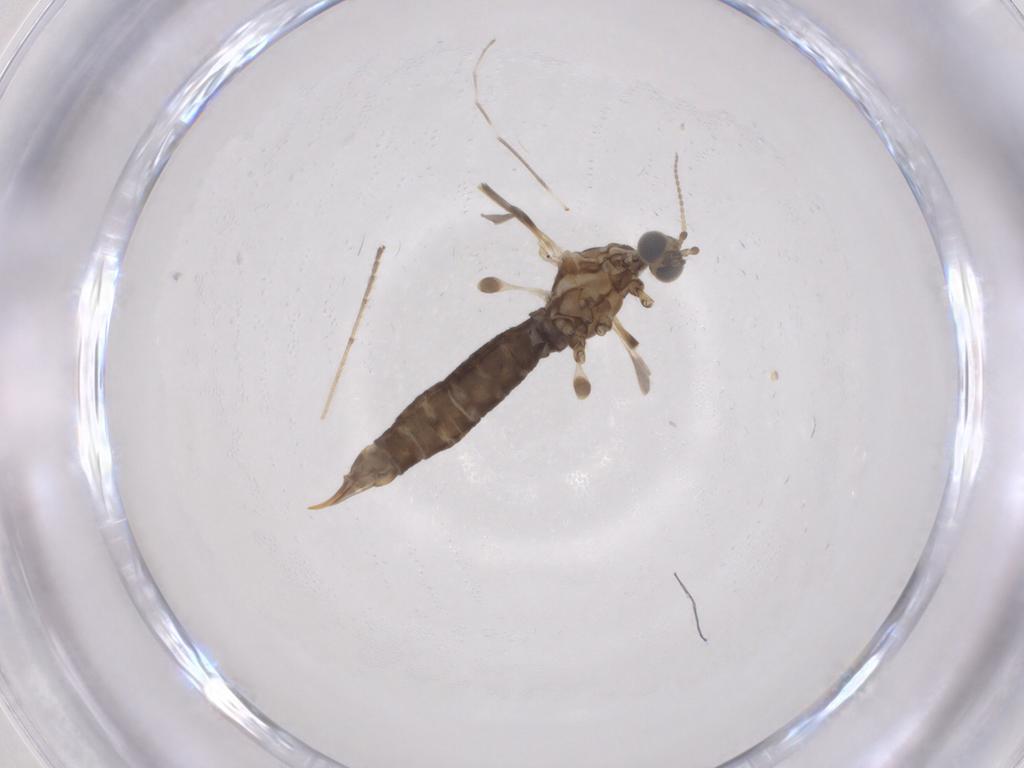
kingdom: Animalia
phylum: Arthropoda
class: Insecta
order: Diptera
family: Limoniidae
